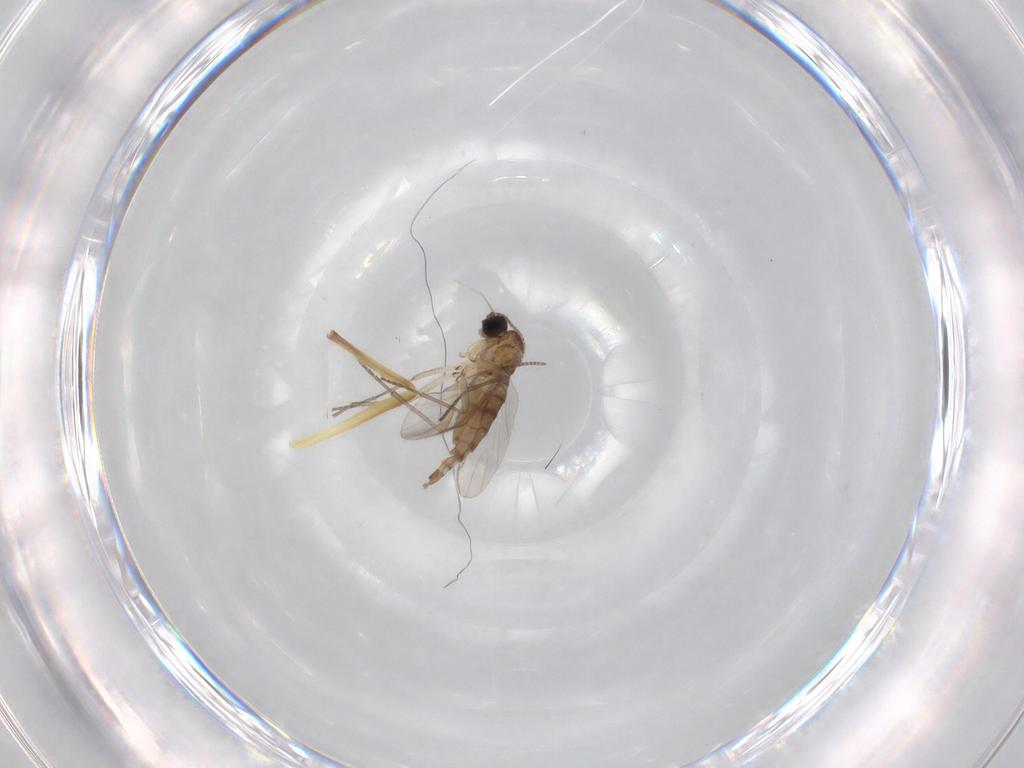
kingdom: Animalia
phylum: Arthropoda
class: Insecta
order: Diptera
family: Sciaridae
